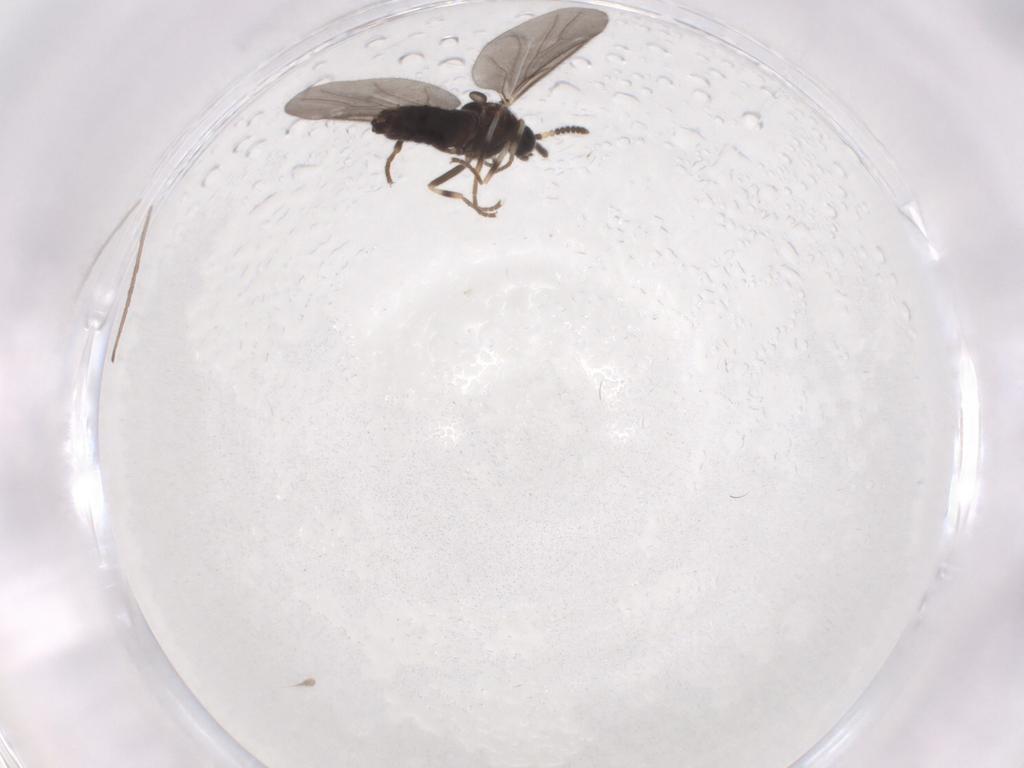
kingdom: Animalia
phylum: Arthropoda
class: Insecta
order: Diptera
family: Scatopsidae
